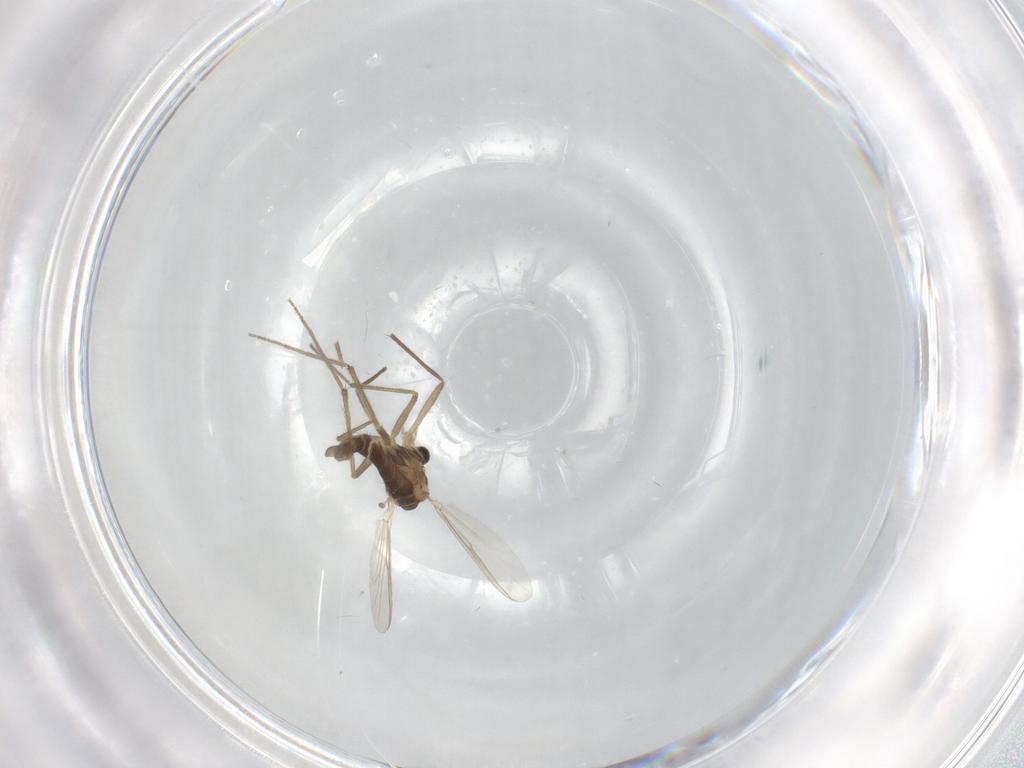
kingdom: Animalia
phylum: Arthropoda
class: Insecta
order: Diptera
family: Chironomidae
